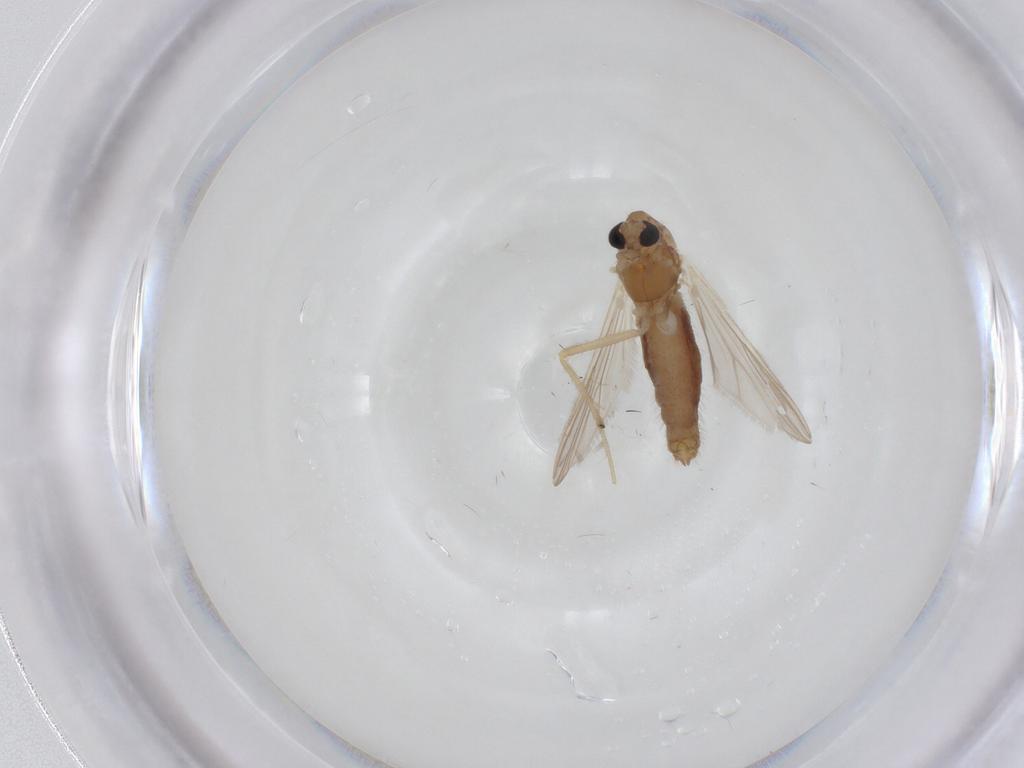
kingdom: Animalia
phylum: Arthropoda
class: Insecta
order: Diptera
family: Chironomidae
